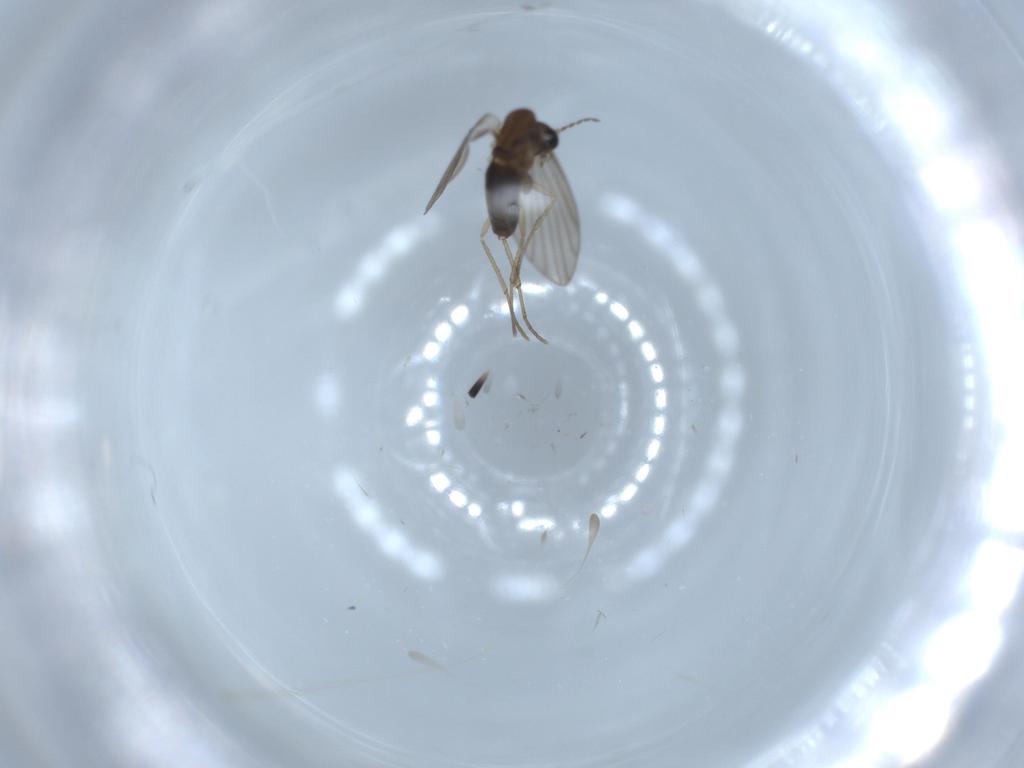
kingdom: Animalia
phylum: Arthropoda
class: Insecta
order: Diptera
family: Psychodidae
